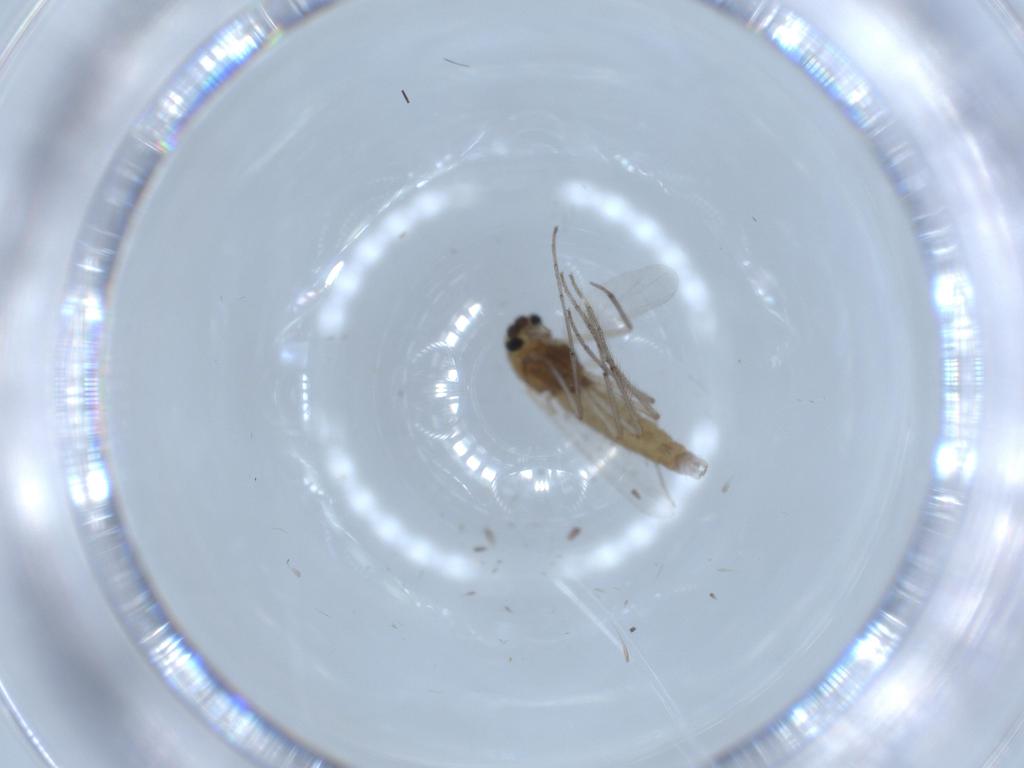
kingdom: Animalia
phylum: Arthropoda
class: Insecta
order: Diptera
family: Chironomidae
